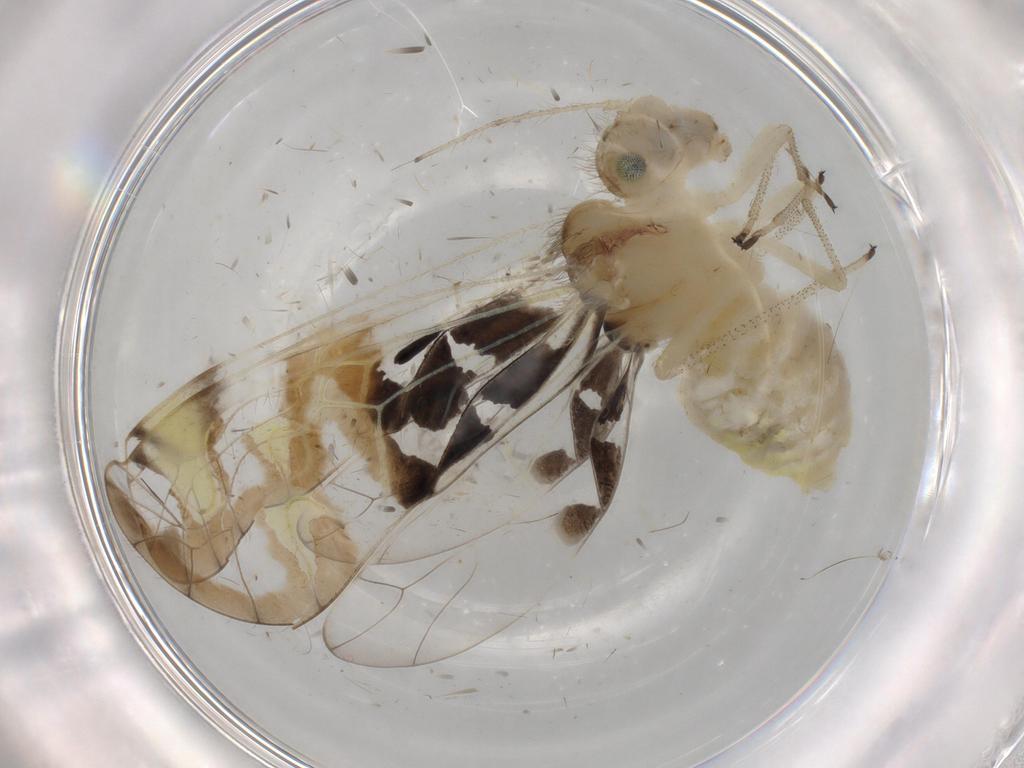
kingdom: Animalia
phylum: Arthropoda
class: Insecta
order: Psocodea
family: Amphipsocidae
